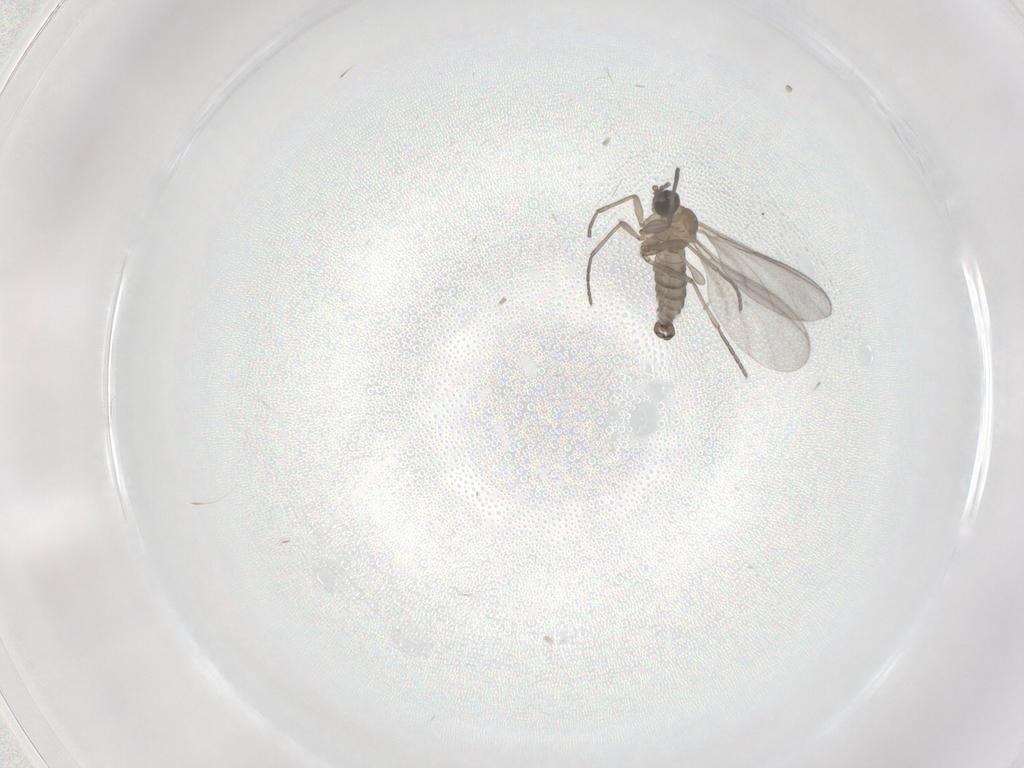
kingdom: Animalia
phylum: Arthropoda
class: Insecta
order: Diptera
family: Sciaridae
